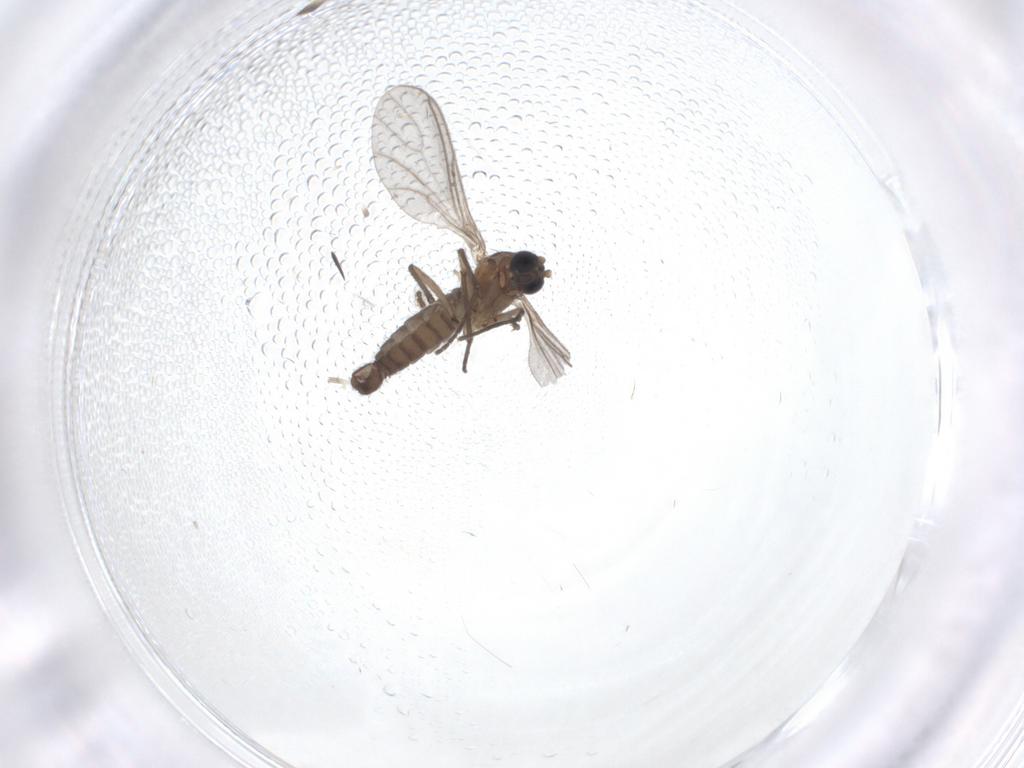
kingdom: Animalia
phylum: Arthropoda
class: Insecta
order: Diptera
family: Sciaridae
